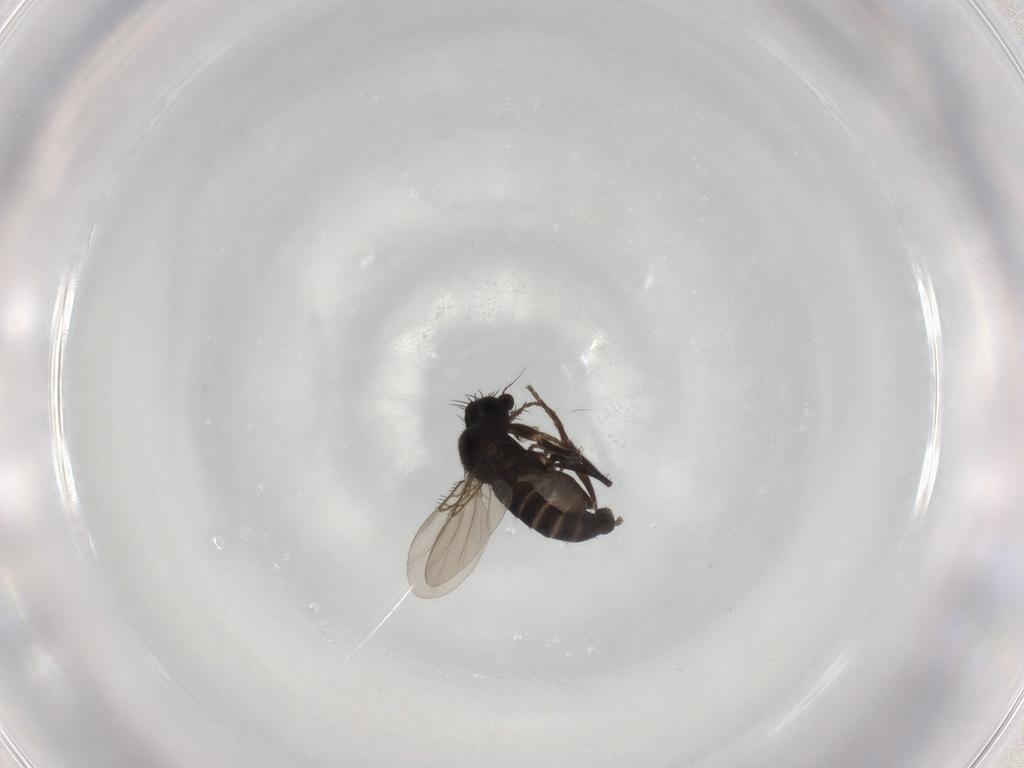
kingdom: Animalia
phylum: Arthropoda
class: Insecta
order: Diptera
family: Phoridae
